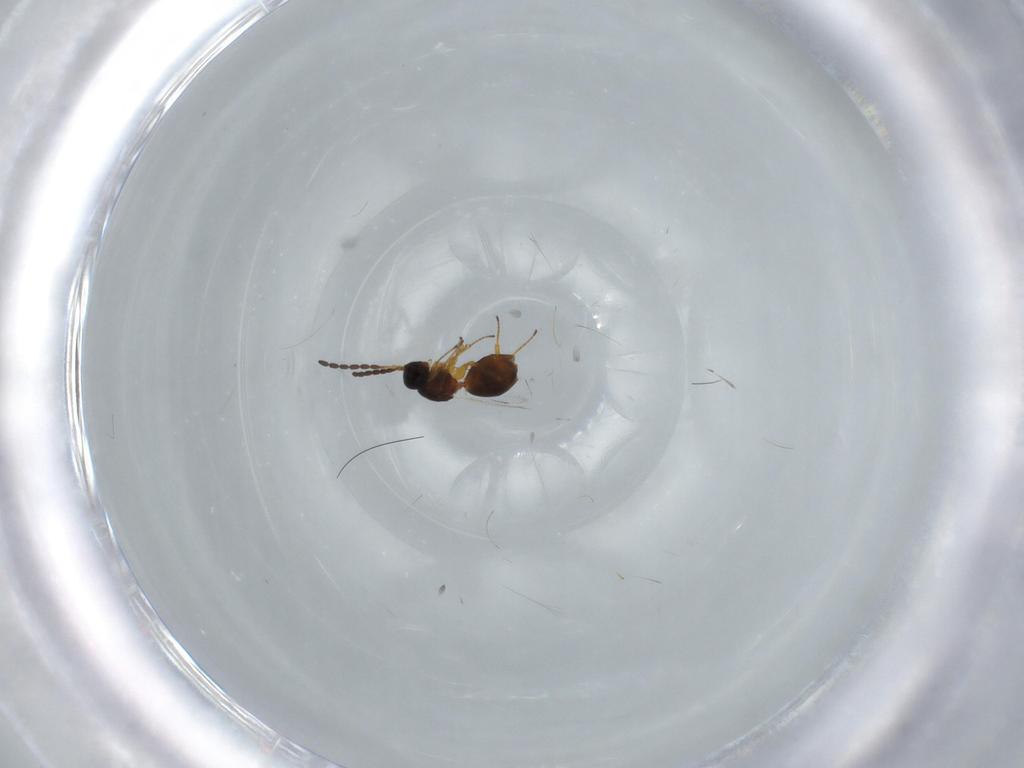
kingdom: Animalia
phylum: Arthropoda
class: Insecta
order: Hymenoptera
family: Figitidae
